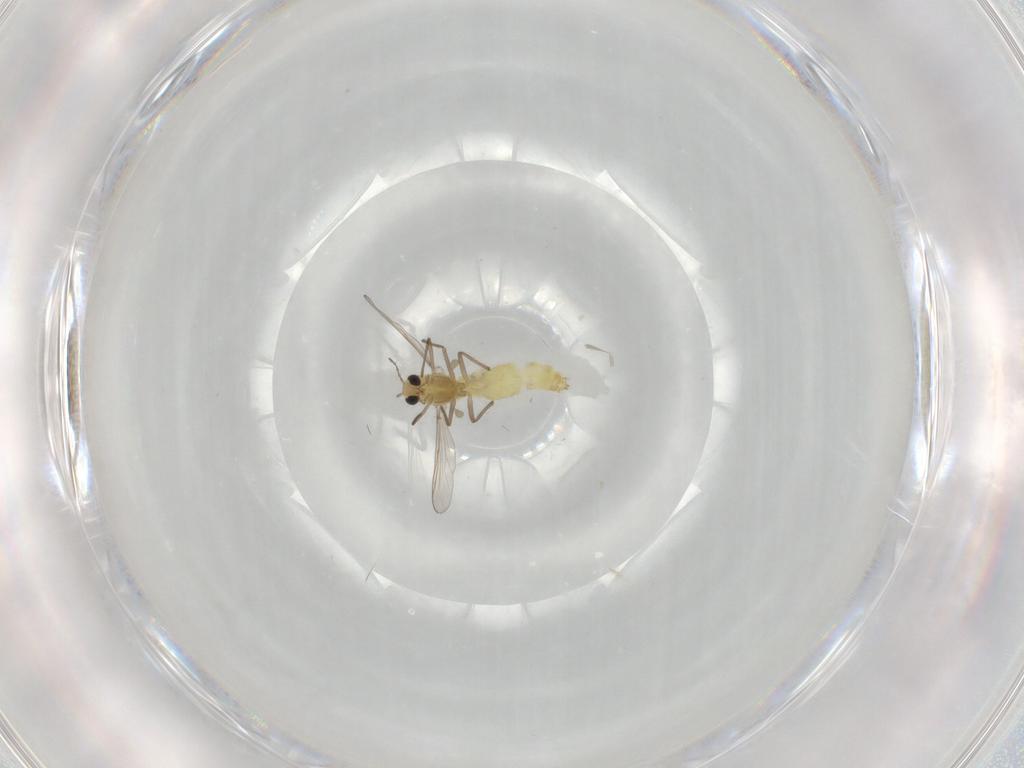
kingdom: Animalia
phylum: Arthropoda
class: Insecta
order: Diptera
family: Chironomidae
